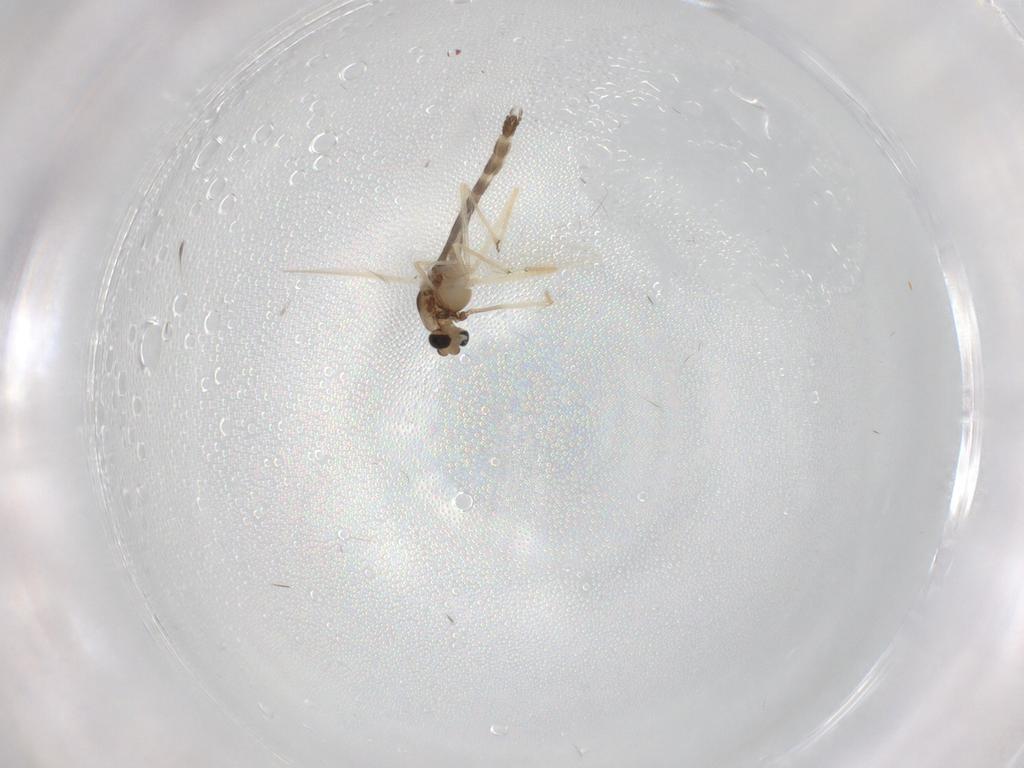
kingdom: Animalia
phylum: Arthropoda
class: Insecta
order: Diptera
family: Chironomidae
